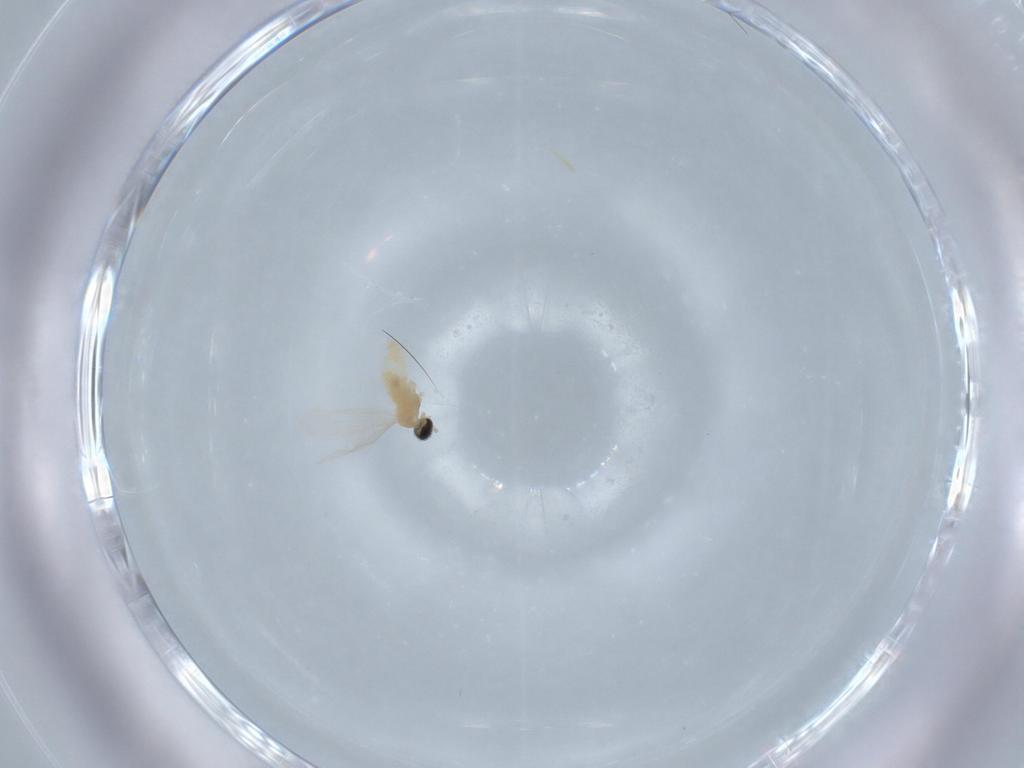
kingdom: Animalia
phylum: Arthropoda
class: Insecta
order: Diptera
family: Cecidomyiidae
